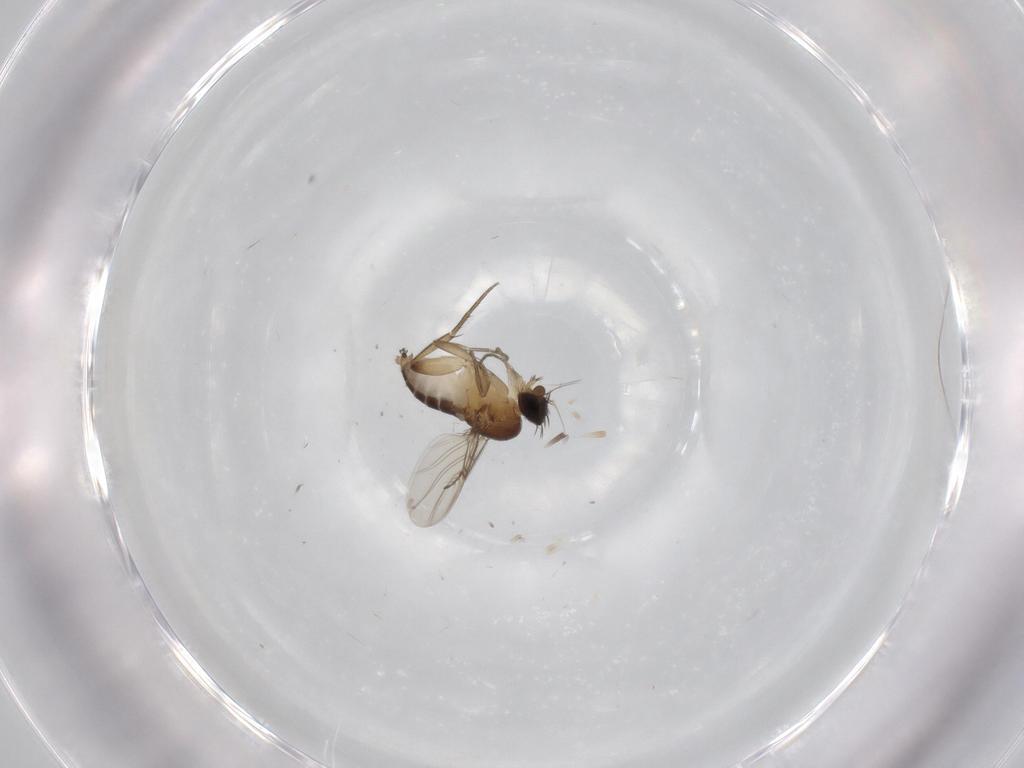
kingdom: Animalia
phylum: Arthropoda
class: Insecta
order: Diptera
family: Phoridae
